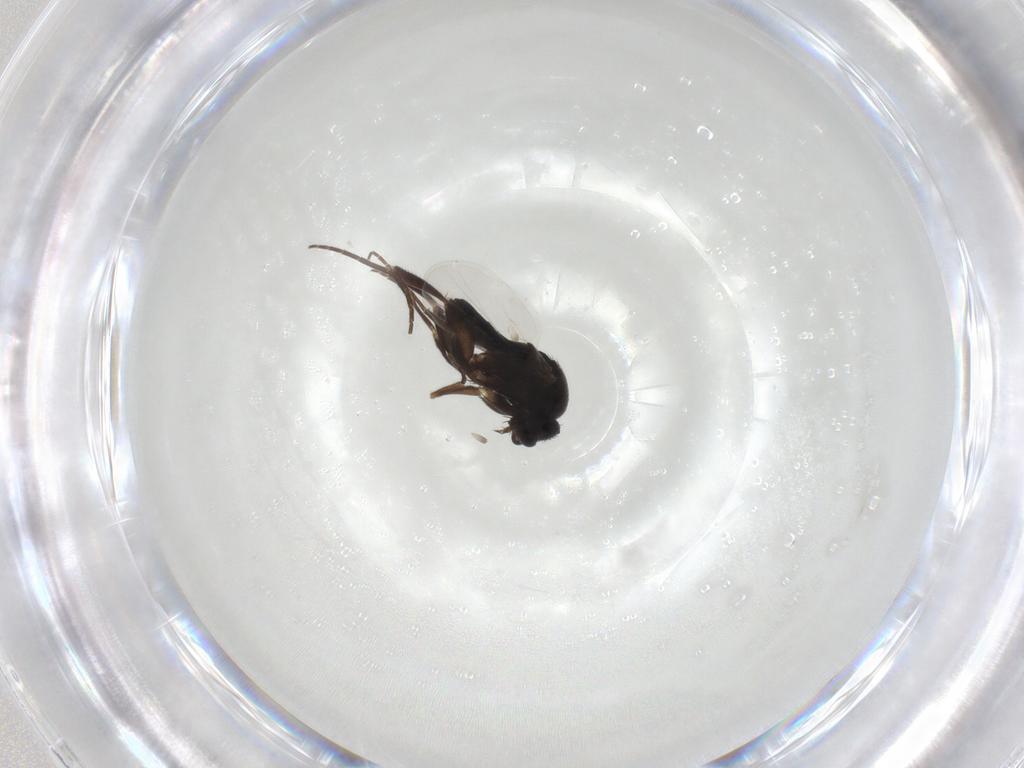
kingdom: Animalia
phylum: Arthropoda
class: Insecta
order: Diptera
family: Phoridae
